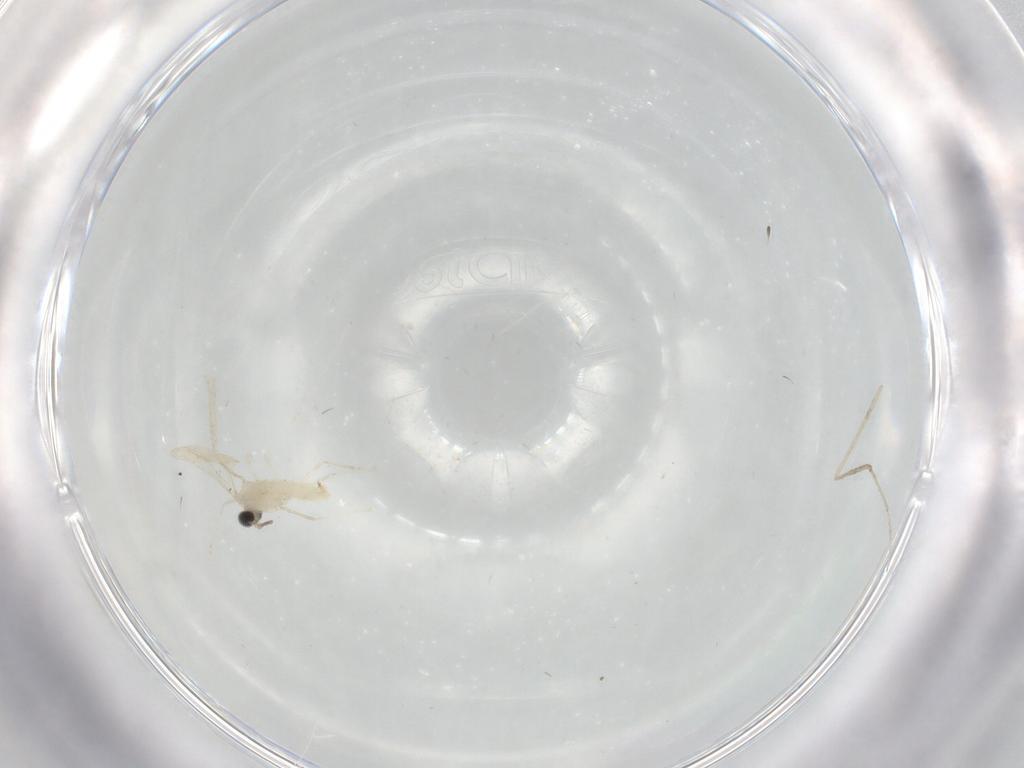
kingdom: Animalia
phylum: Arthropoda
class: Insecta
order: Diptera
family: Cecidomyiidae
